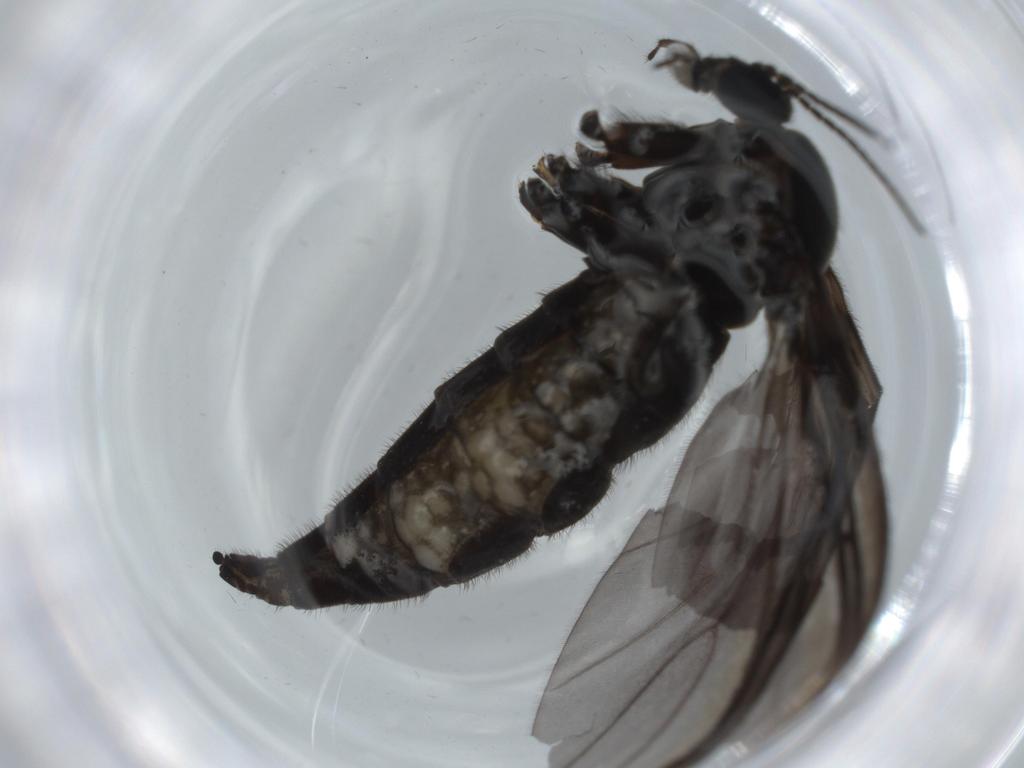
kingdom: Animalia
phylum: Arthropoda
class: Insecta
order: Diptera
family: Sciaridae
